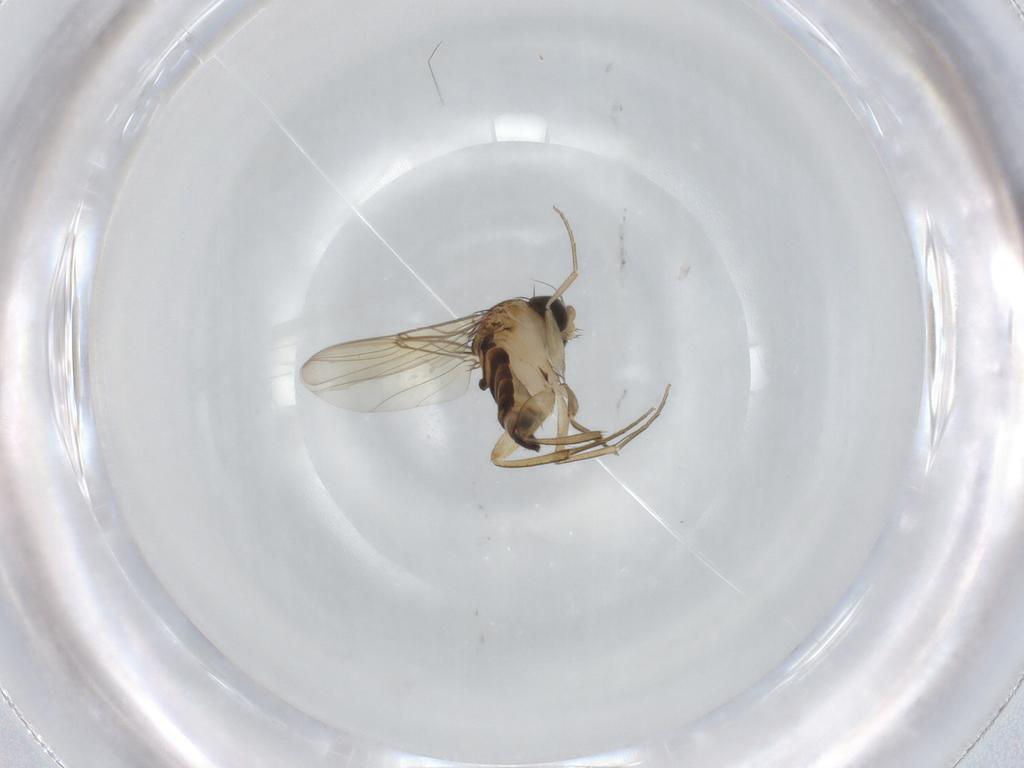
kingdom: Animalia
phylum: Arthropoda
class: Insecta
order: Diptera
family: Phoridae
